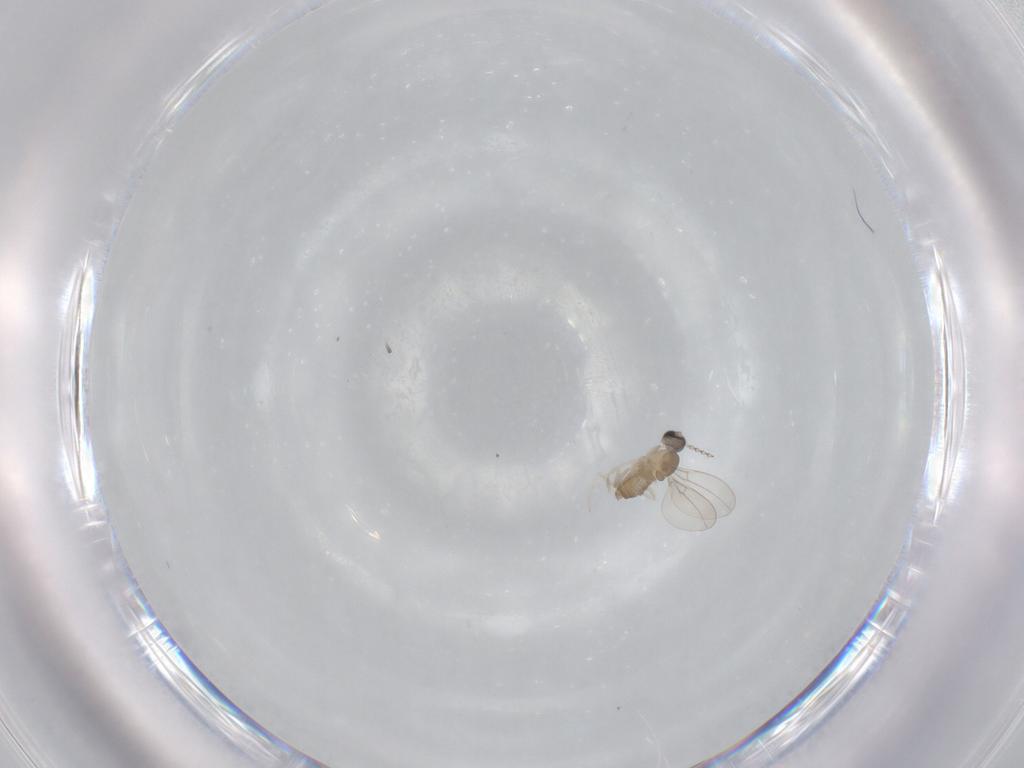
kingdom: Animalia
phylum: Arthropoda
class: Insecta
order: Diptera
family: Cecidomyiidae
